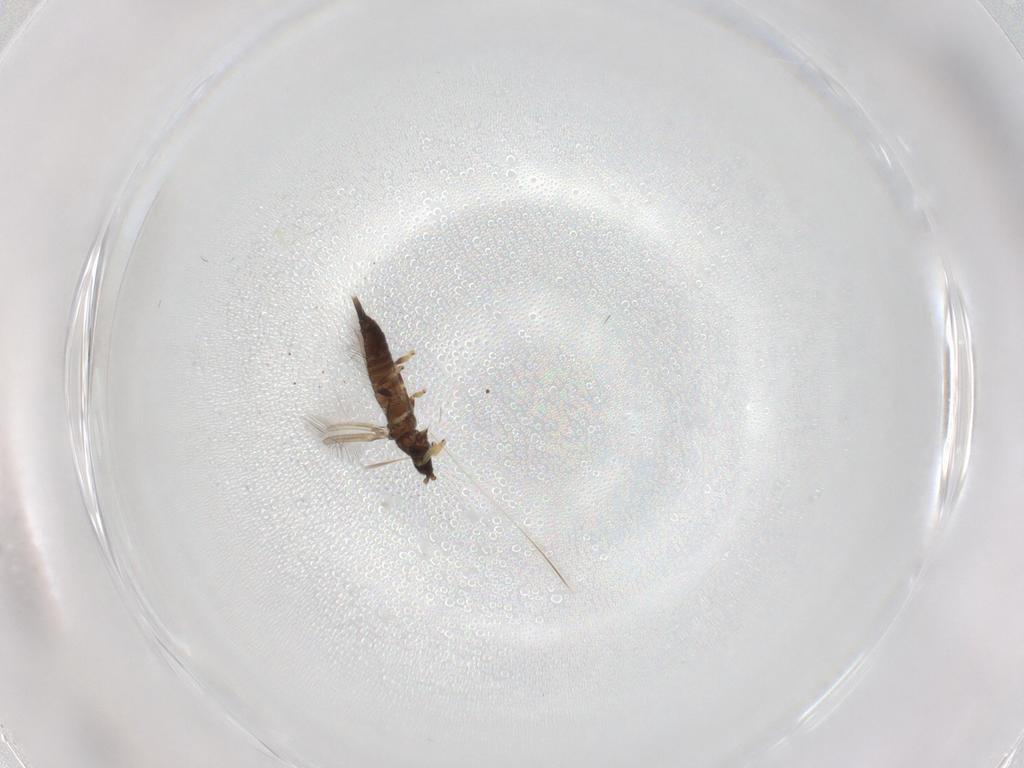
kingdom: Animalia
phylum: Arthropoda
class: Insecta
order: Thysanoptera
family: Phlaeothripidae
